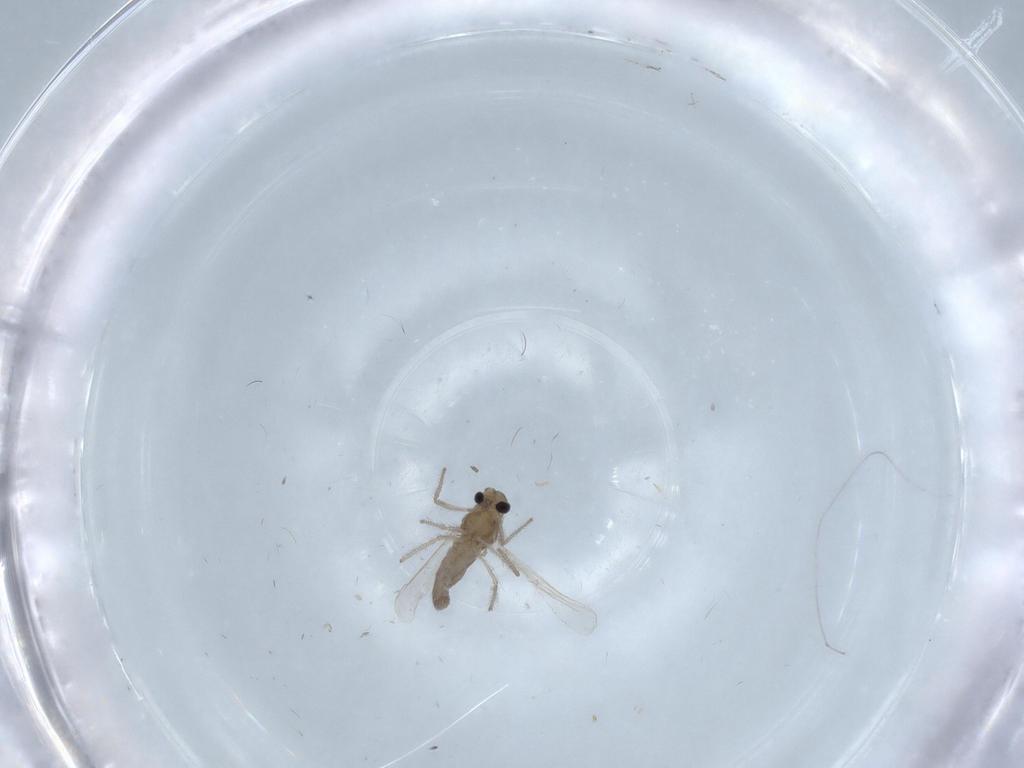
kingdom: Animalia
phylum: Arthropoda
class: Insecta
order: Diptera
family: Chironomidae
